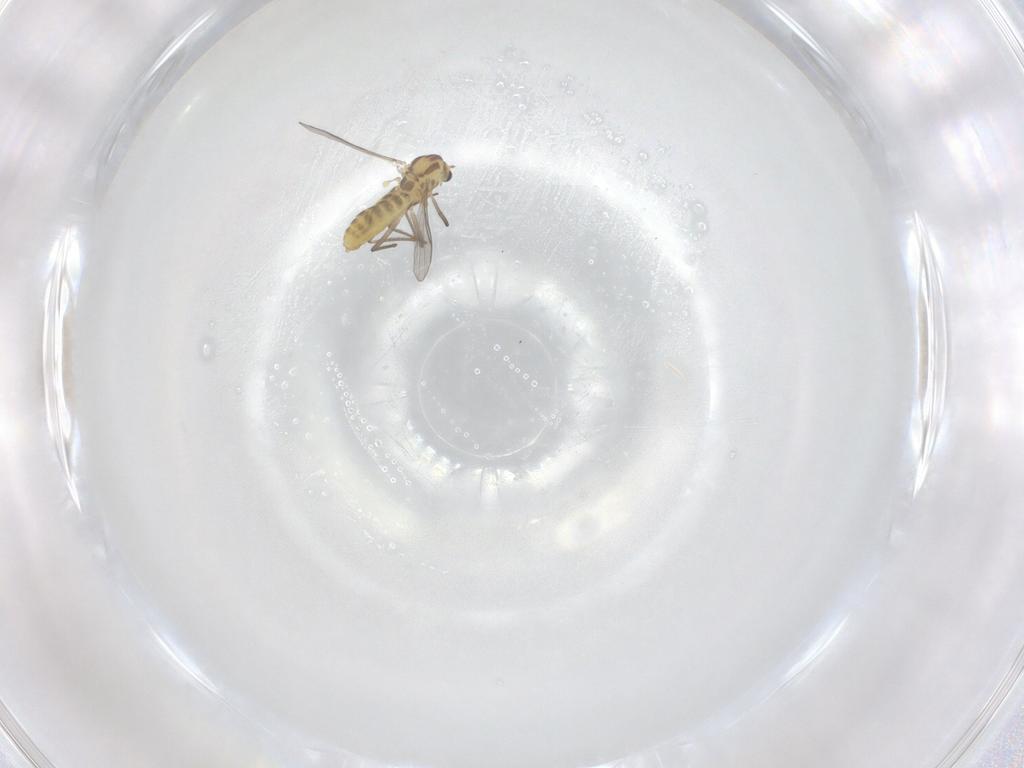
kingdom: Animalia
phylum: Arthropoda
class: Insecta
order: Diptera
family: Chironomidae
